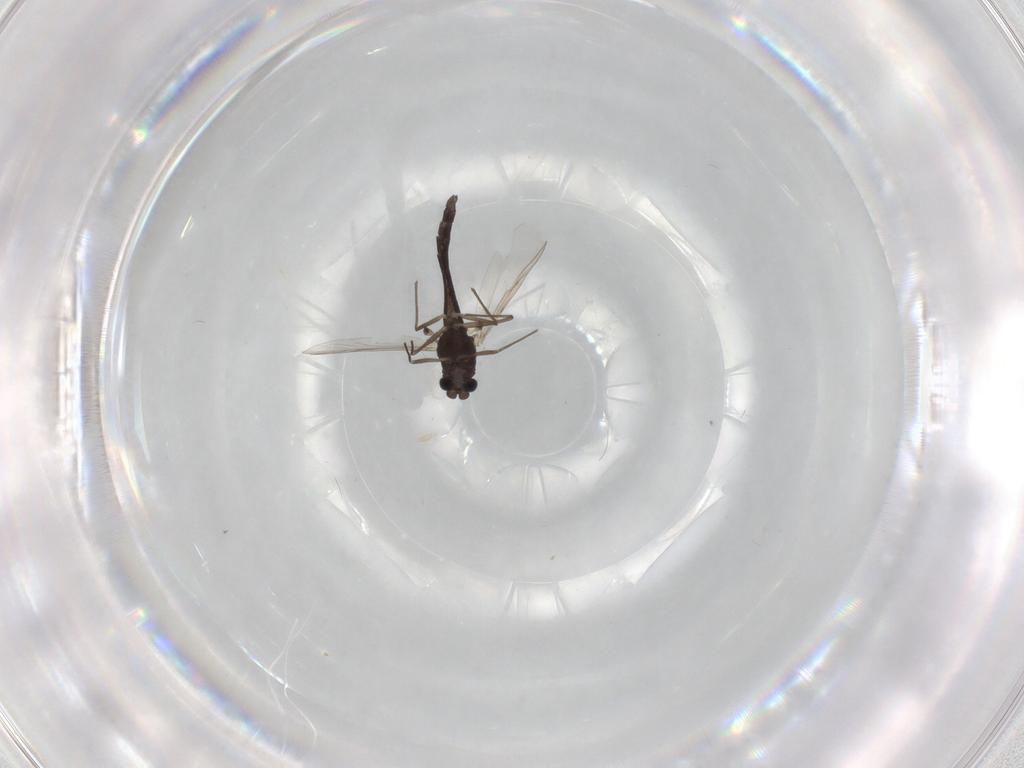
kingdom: Animalia
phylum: Arthropoda
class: Insecta
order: Diptera
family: Chironomidae
